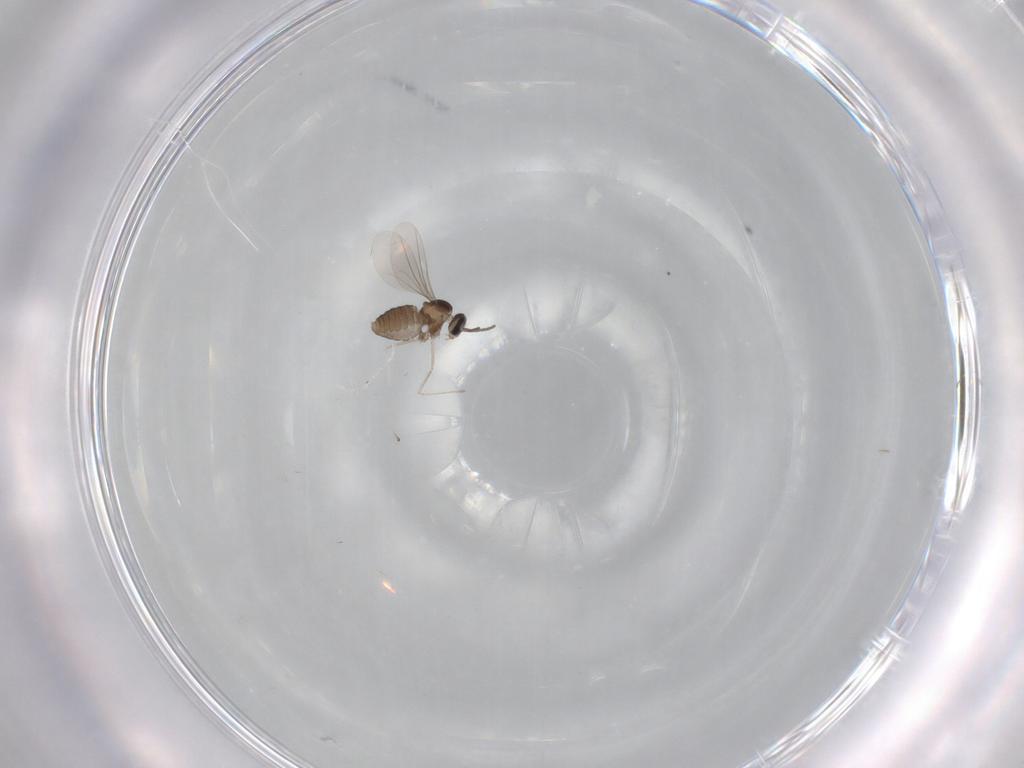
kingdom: Animalia
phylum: Arthropoda
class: Insecta
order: Diptera
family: Cecidomyiidae
